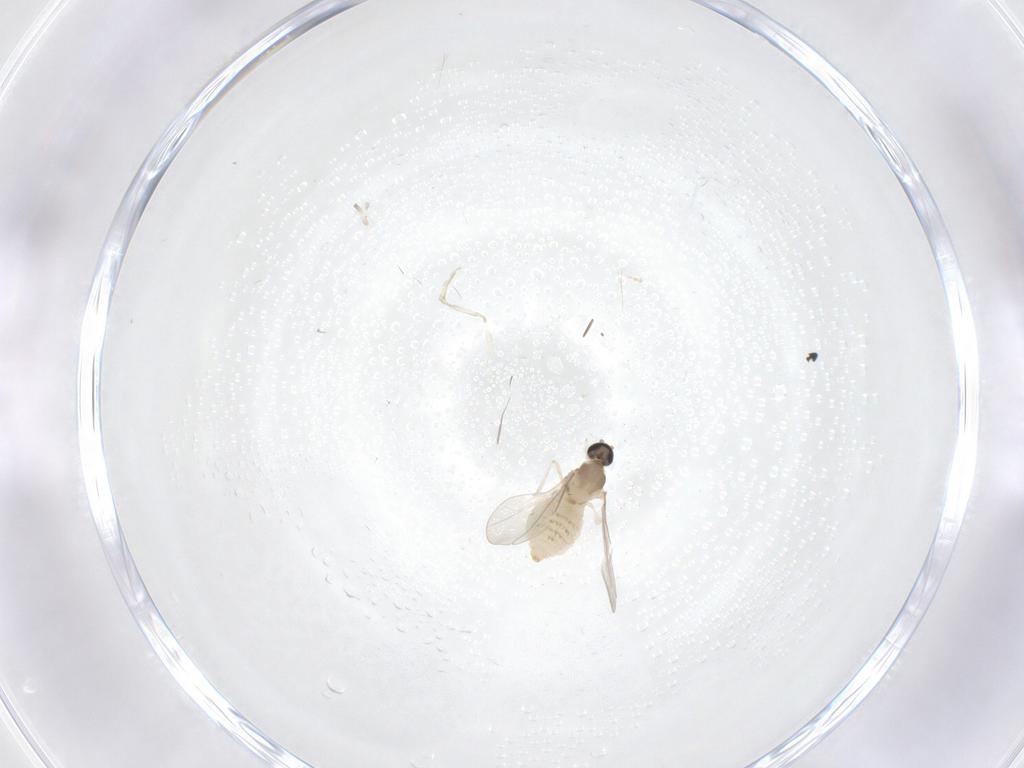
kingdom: Animalia
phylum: Arthropoda
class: Insecta
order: Diptera
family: Cecidomyiidae
